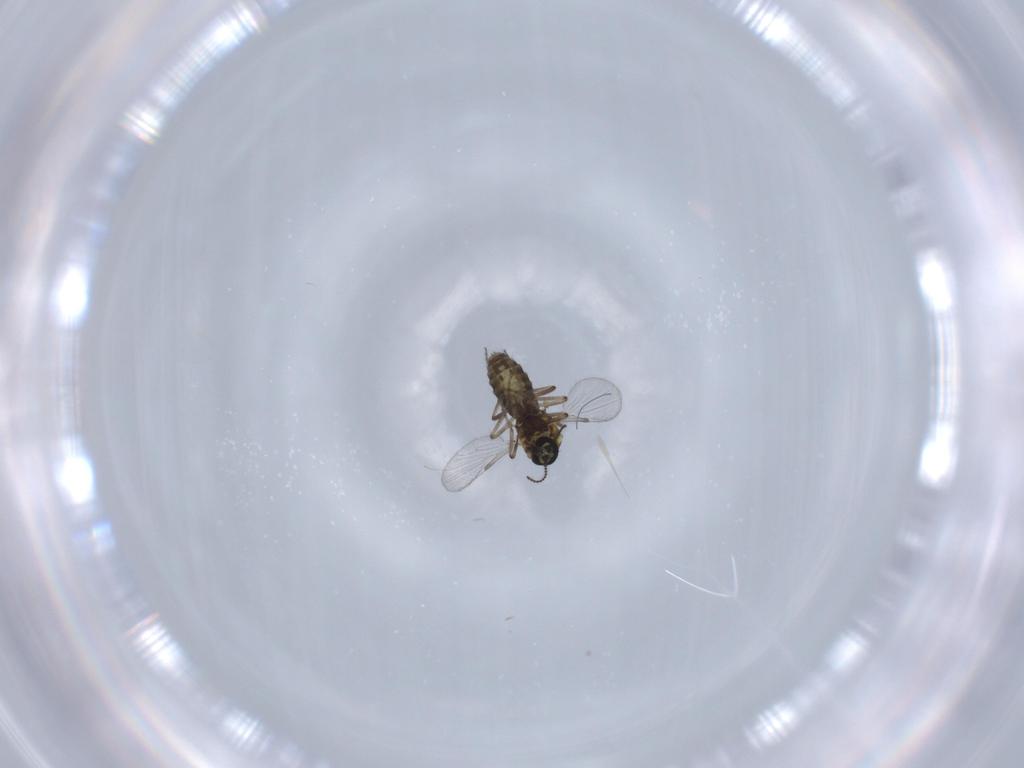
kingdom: Animalia
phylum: Arthropoda
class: Insecta
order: Diptera
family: Ceratopogonidae
